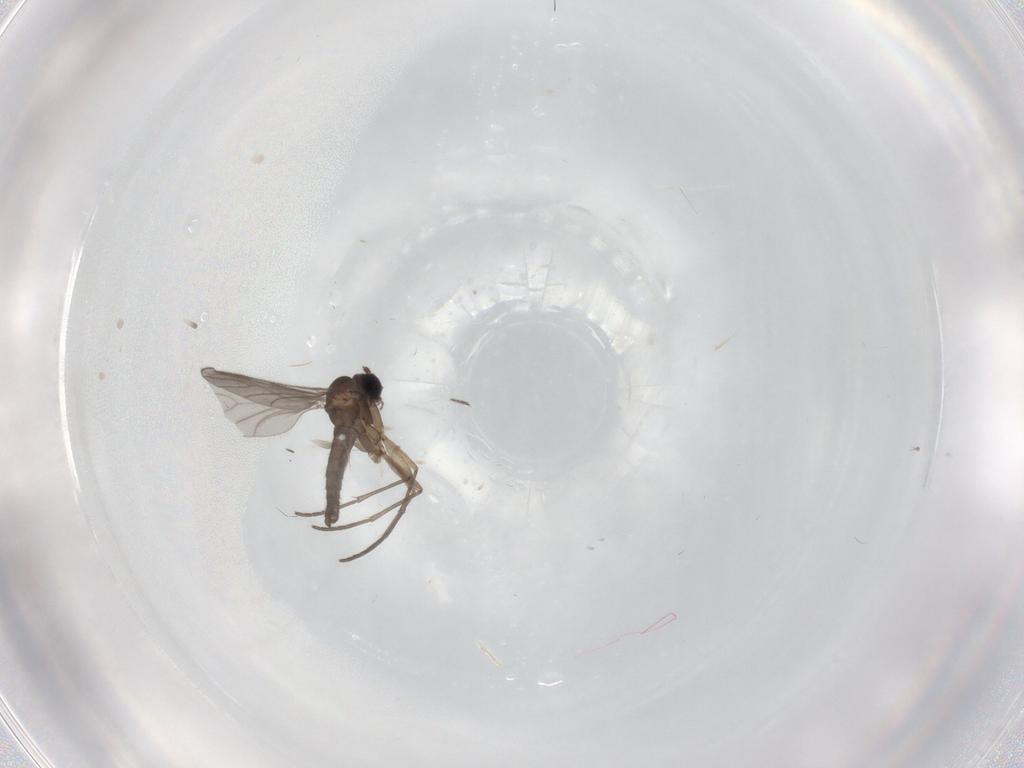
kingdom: Animalia
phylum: Arthropoda
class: Insecta
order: Diptera
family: Sciaridae
